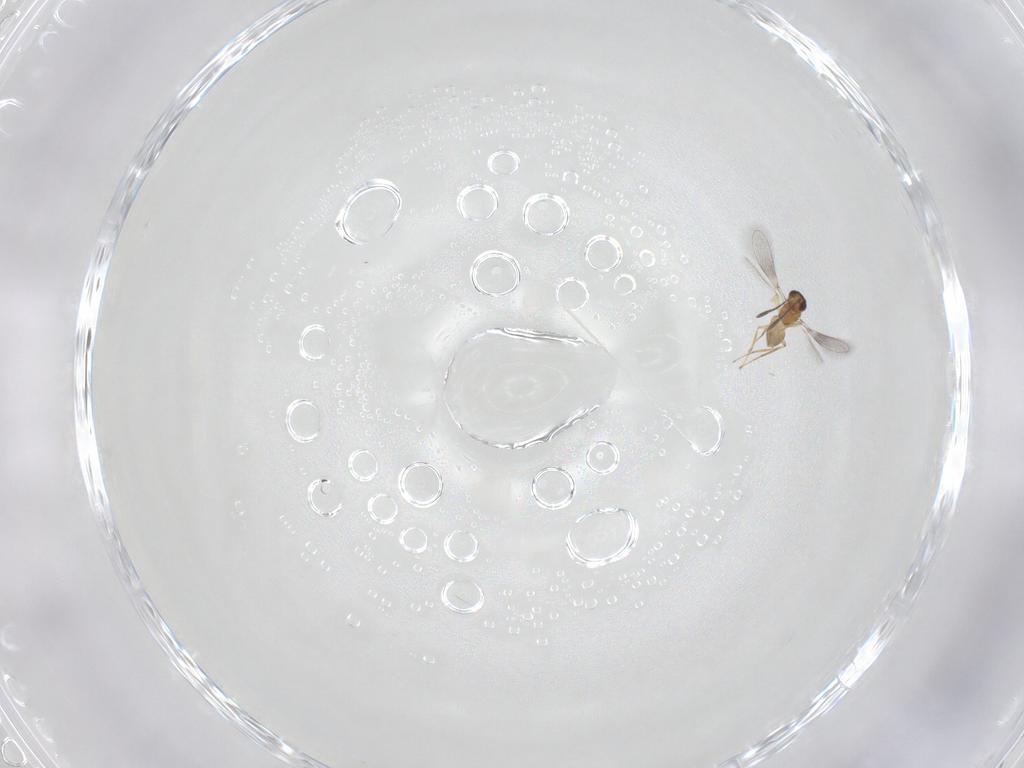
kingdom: Animalia
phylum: Arthropoda
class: Insecta
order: Hymenoptera
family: Mymaridae
